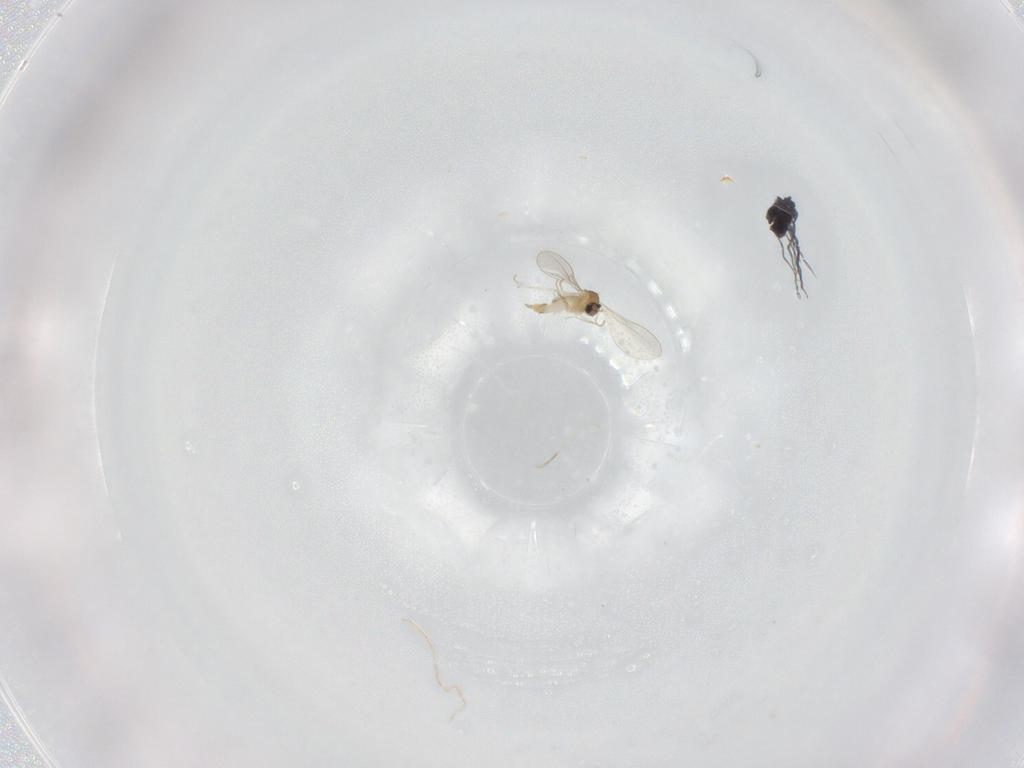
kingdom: Animalia
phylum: Arthropoda
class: Insecta
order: Diptera
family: Cecidomyiidae
